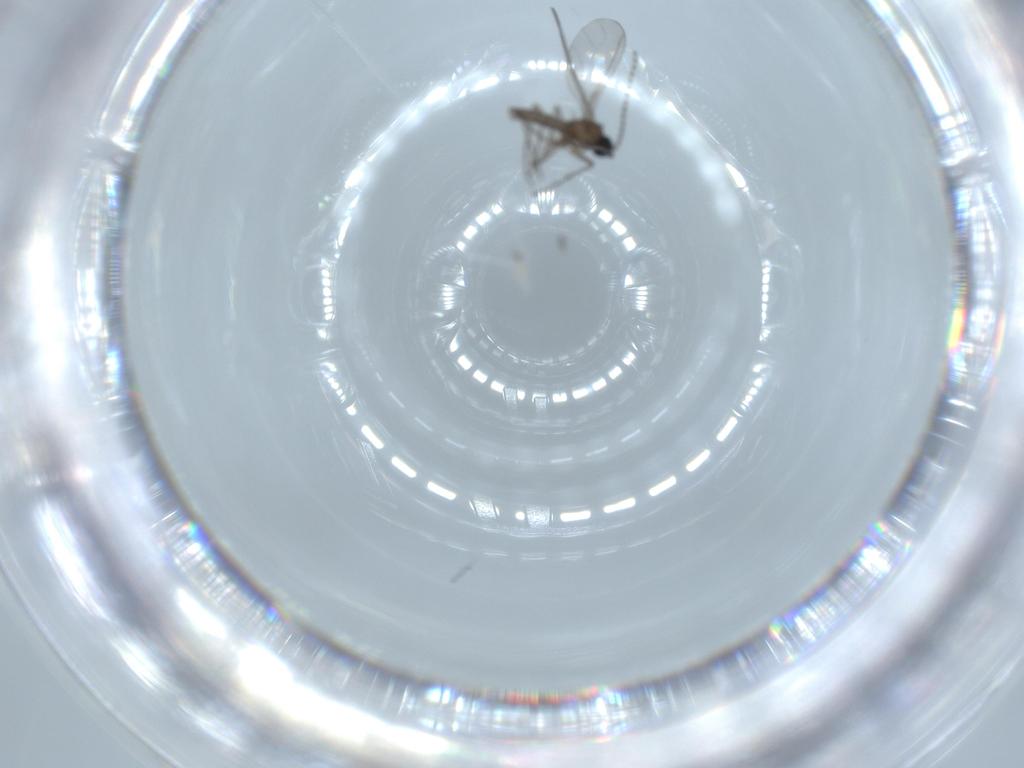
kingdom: Animalia
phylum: Arthropoda
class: Insecta
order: Diptera
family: Sciaridae
